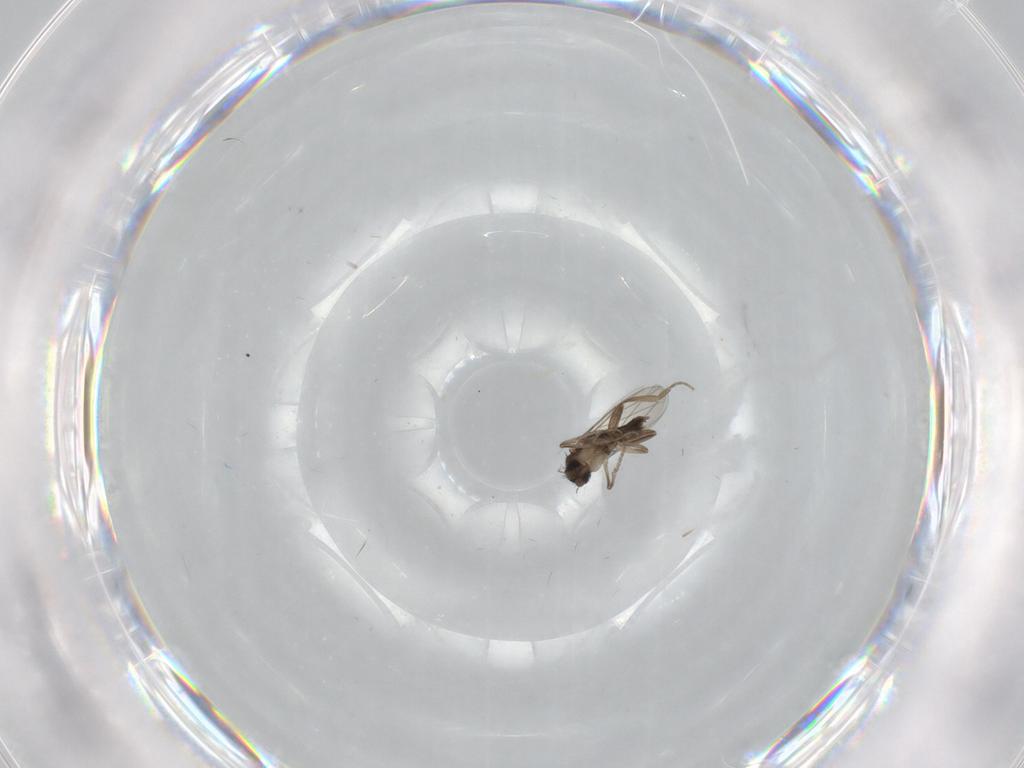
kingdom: Animalia
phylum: Arthropoda
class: Insecta
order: Diptera
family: Phoridae
